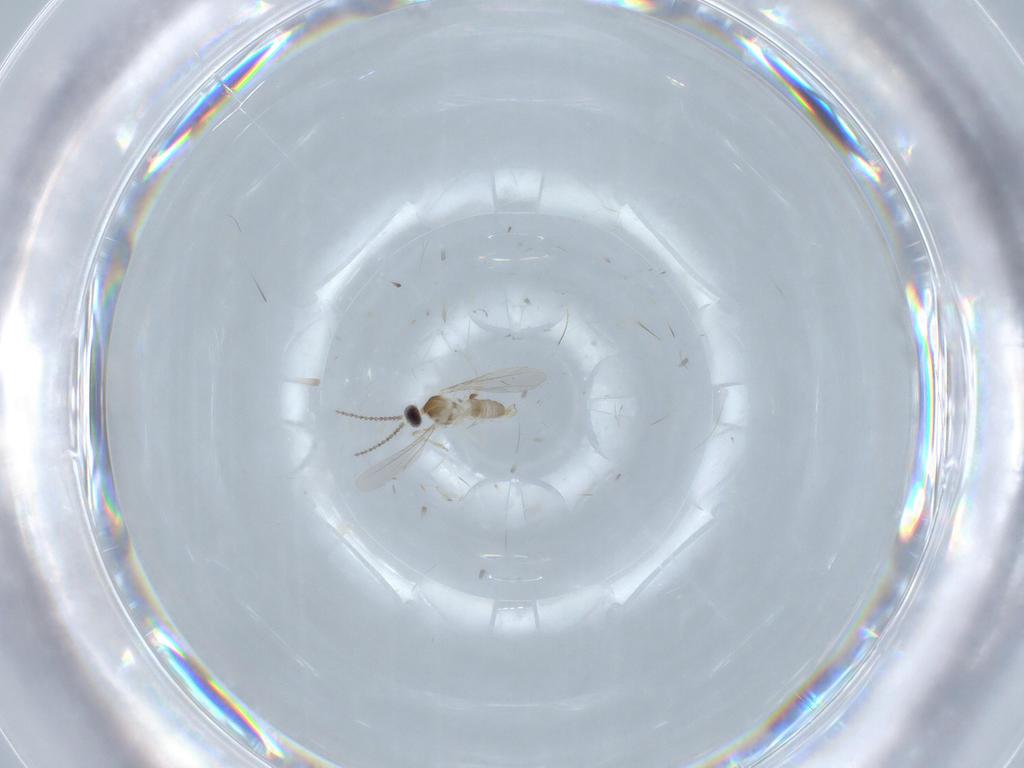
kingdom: Animalia
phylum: Arthropoda
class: Insecta
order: Diptera
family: Cecidomyiidae
